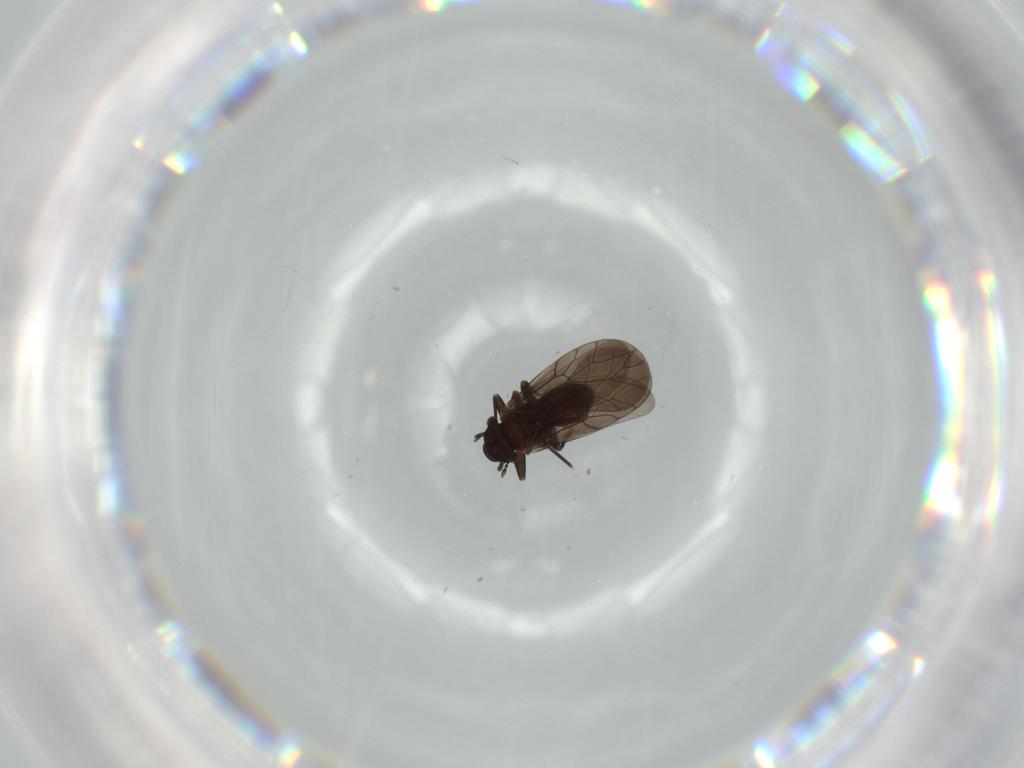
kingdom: Animalia
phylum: Arthropoda
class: Insecta
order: Psocodea
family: Lepidopsocidae
